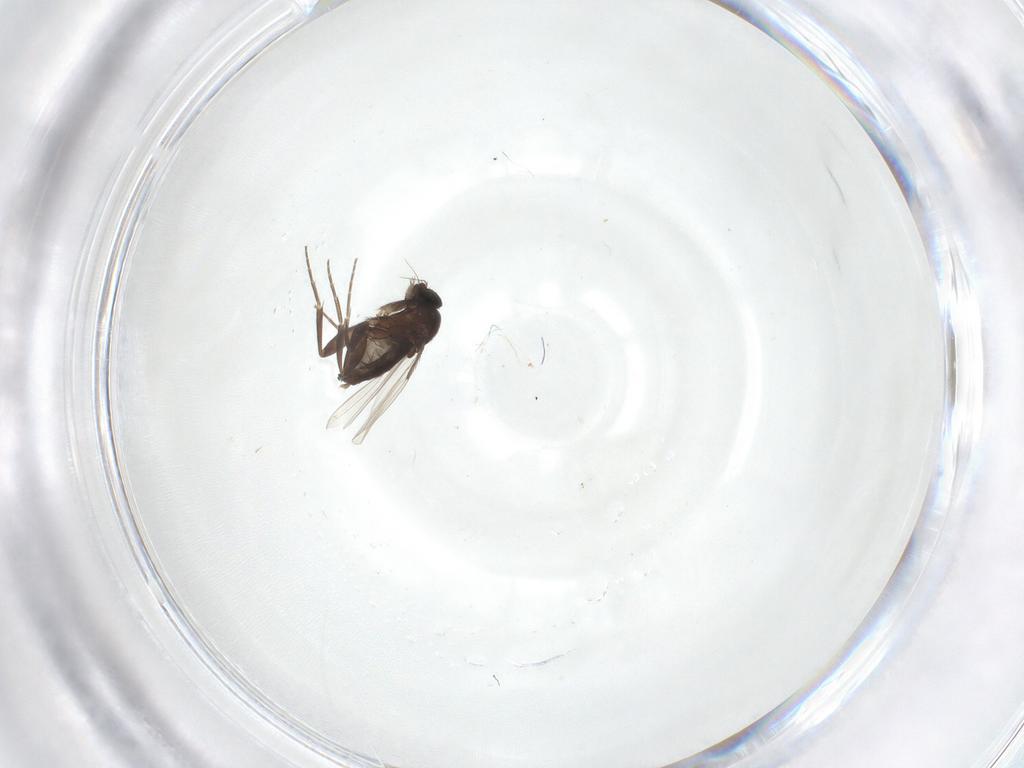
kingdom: Animalia
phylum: Arthropoda
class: Insecta
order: Diptera
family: Phoridae
